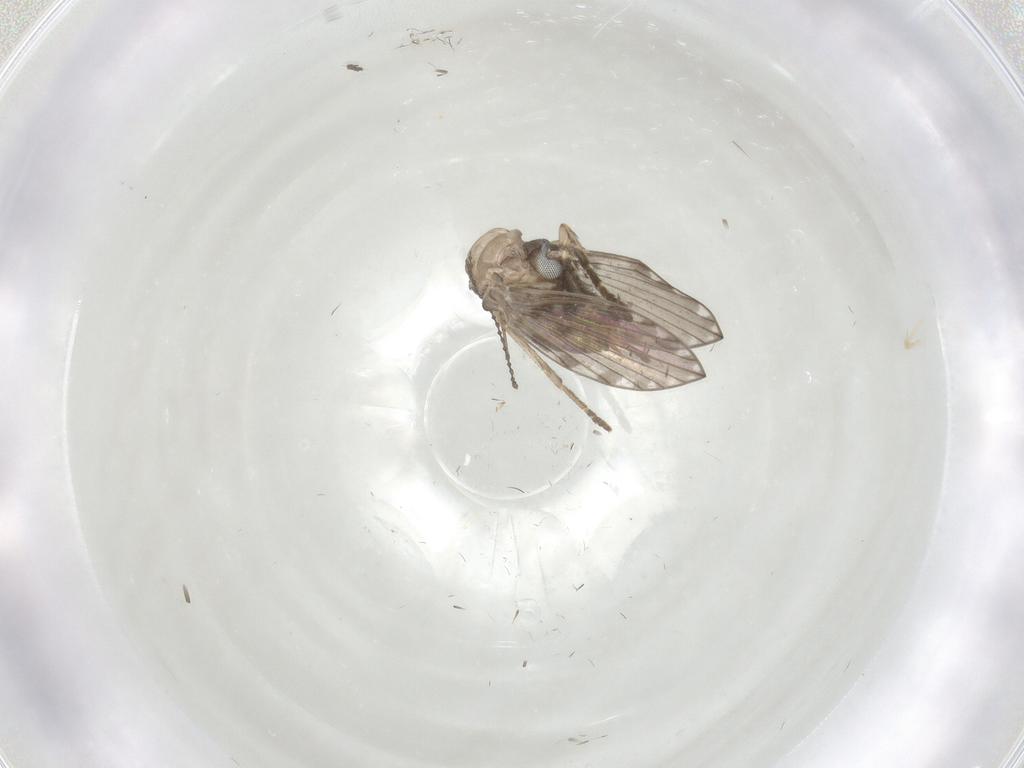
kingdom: Animalia
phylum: Arthropoda
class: Insecta
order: Diptera
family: Psychodidae
